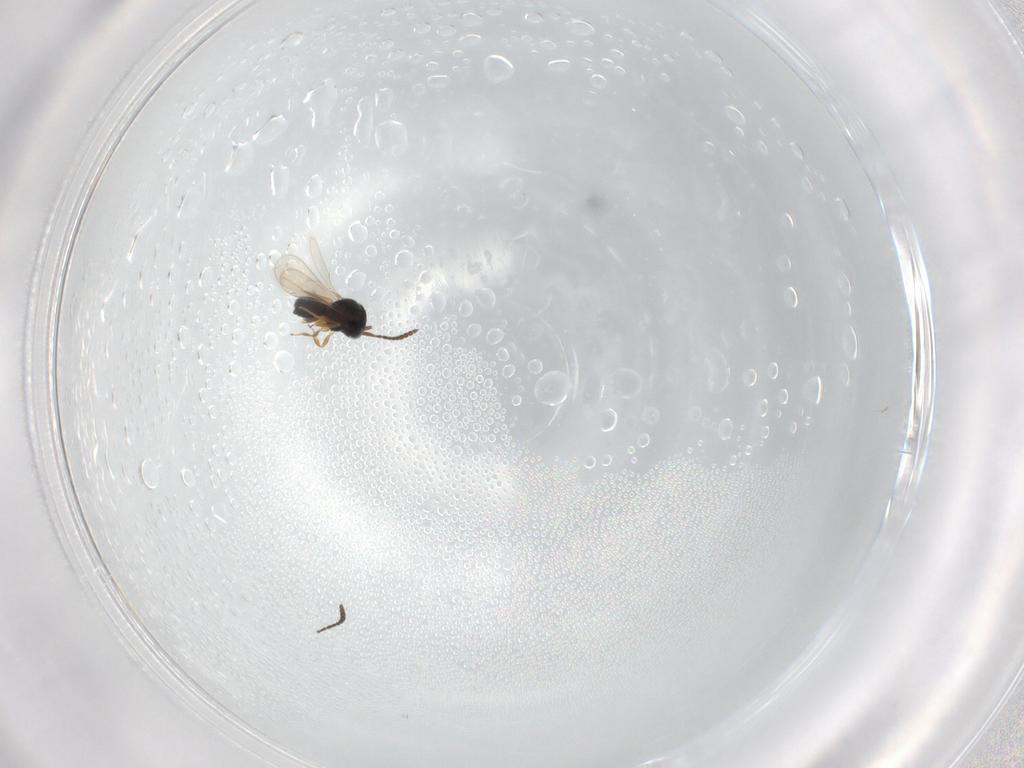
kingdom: Animalia
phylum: Arthropoda
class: Insecta
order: Hymenoptera
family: Scelionidae
